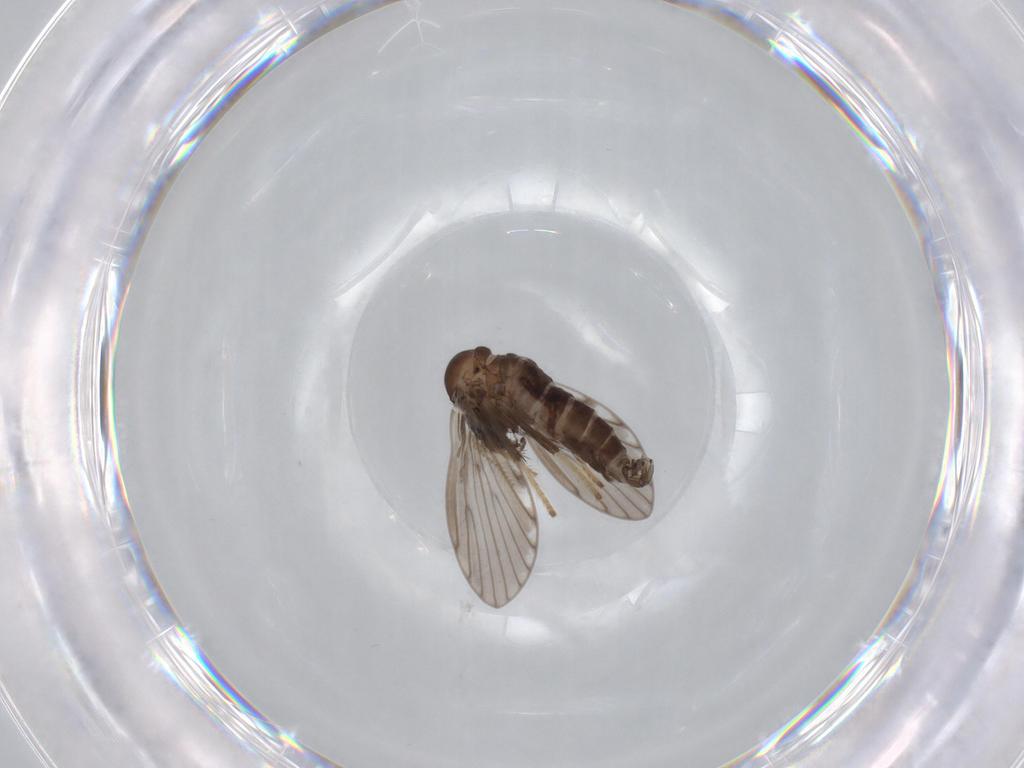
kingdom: Animalia
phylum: Arthropoda
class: Insecta
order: Diptera
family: Psychodidae
